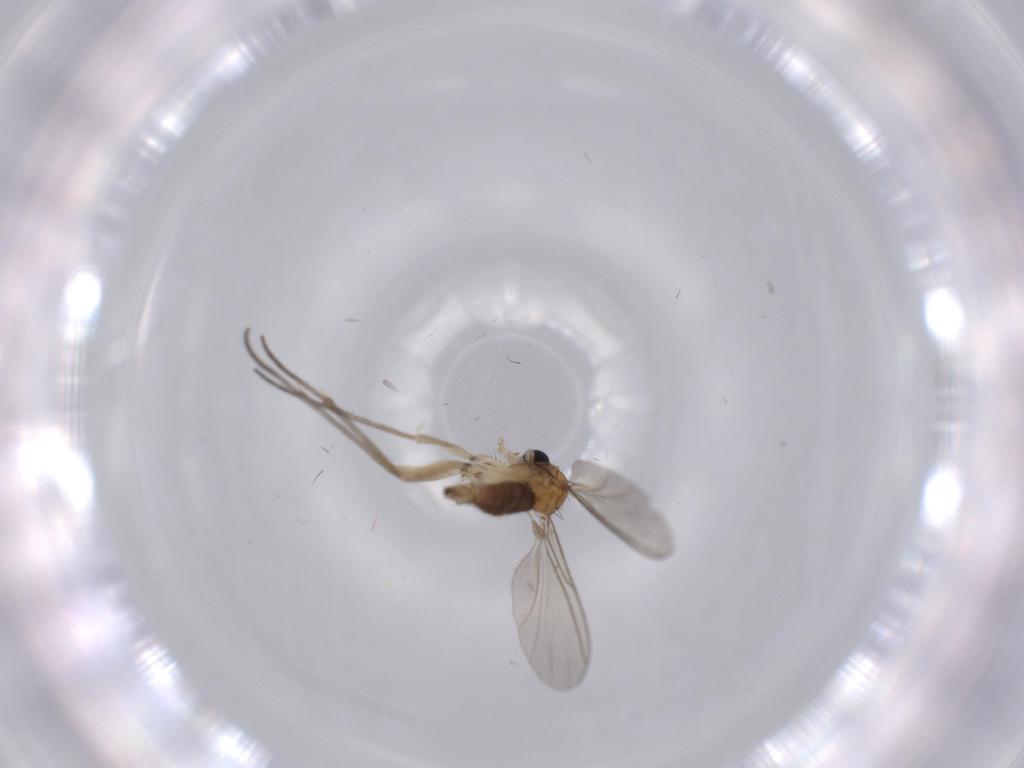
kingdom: Animalia
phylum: Arthropoda
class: Insecta
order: Diptera
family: Sciaridae
